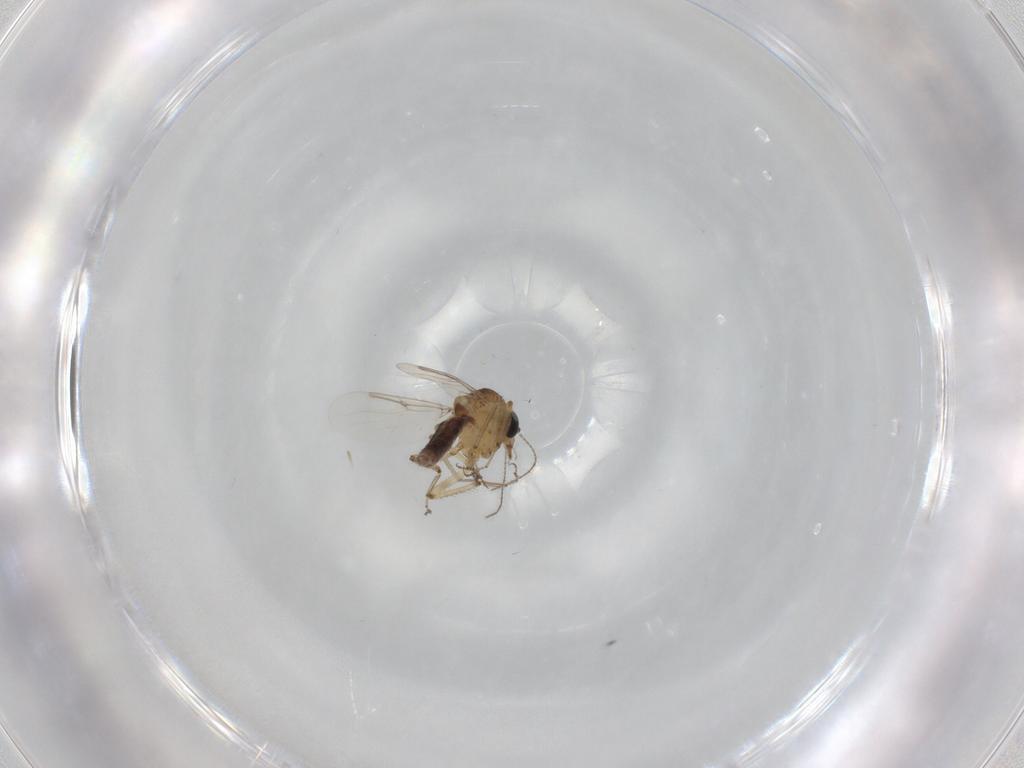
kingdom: Animalia
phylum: Arthropoda
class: Insecta
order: Diptera
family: Ceratopogonidae
